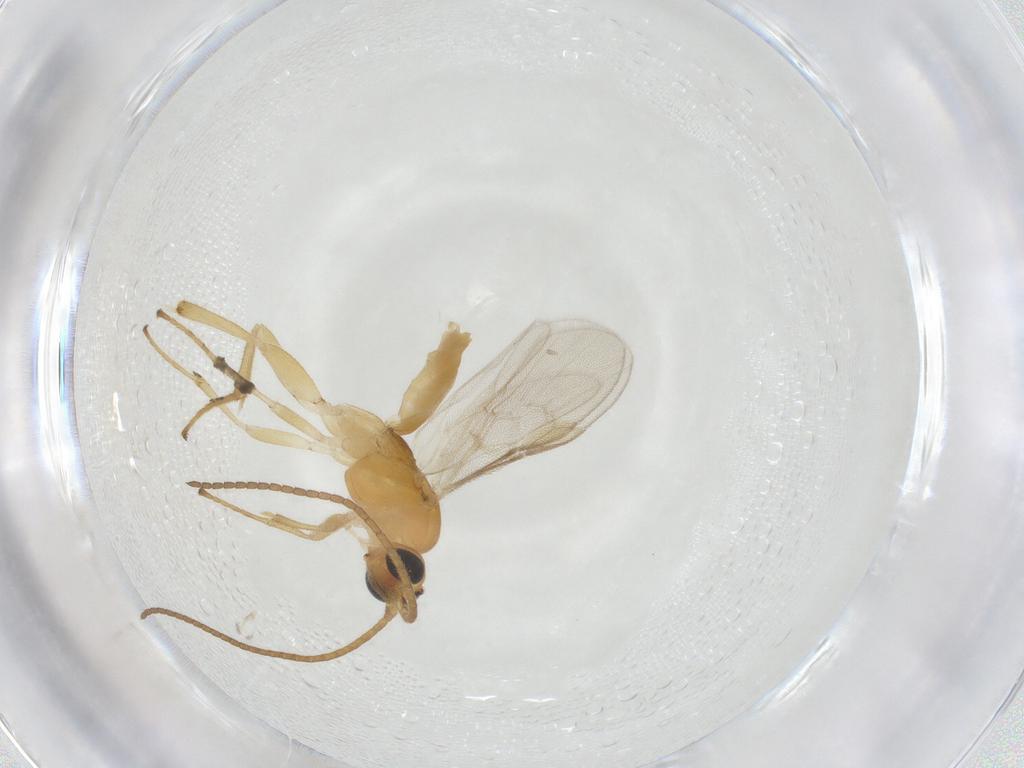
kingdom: Animalia
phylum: Arthropoda
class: Insecta
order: Hymenoptera
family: Braconidae
